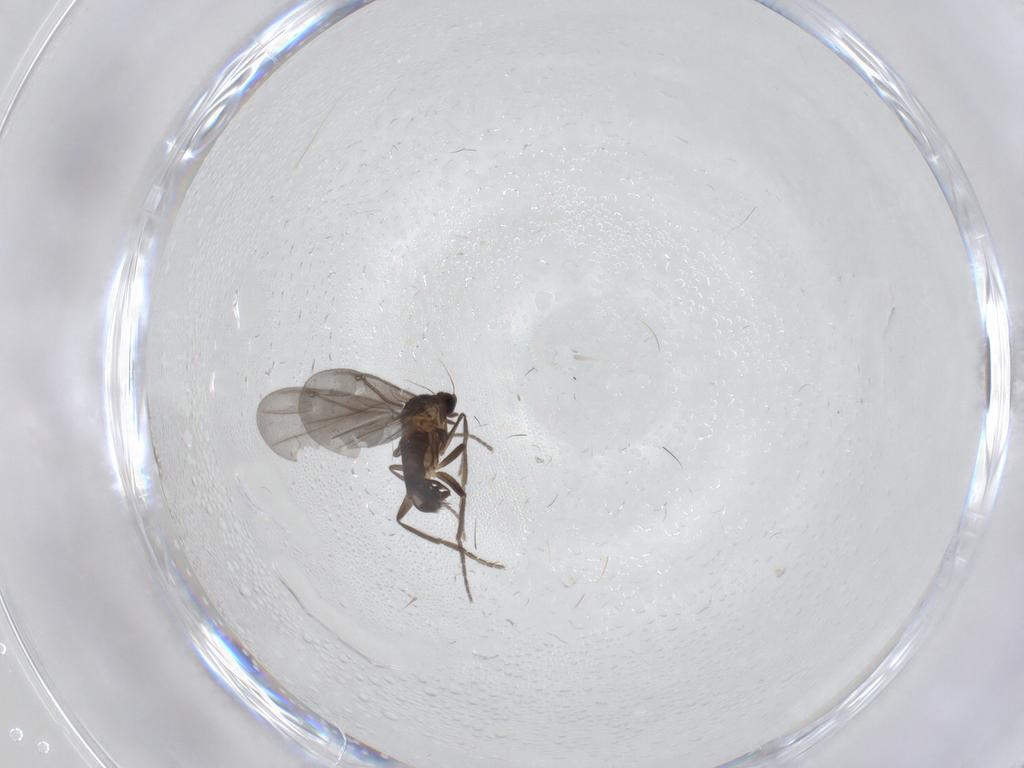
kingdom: Animalia
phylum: Arthropoda
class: Insecta
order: Diptera
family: Phoridae
